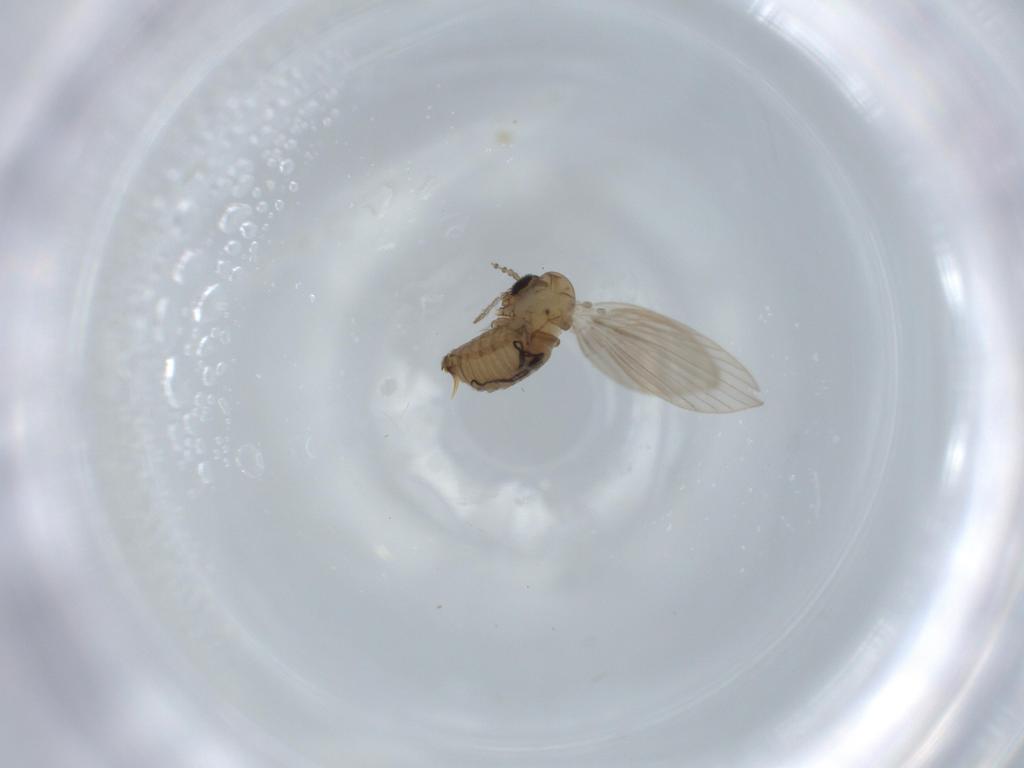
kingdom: Animalia
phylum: Arthropoda
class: Insecta
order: Diptera
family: Psychodidae
